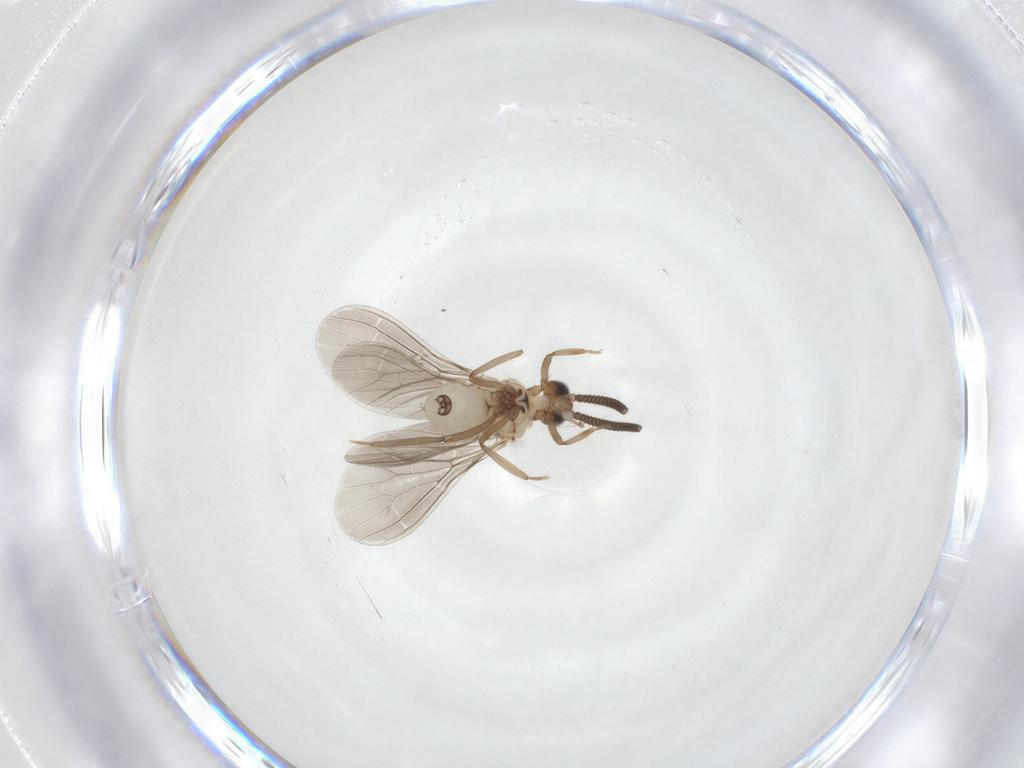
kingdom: Animalia
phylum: Arthropoda
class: Insecta
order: Neuroptera
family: Coniopterygidae
